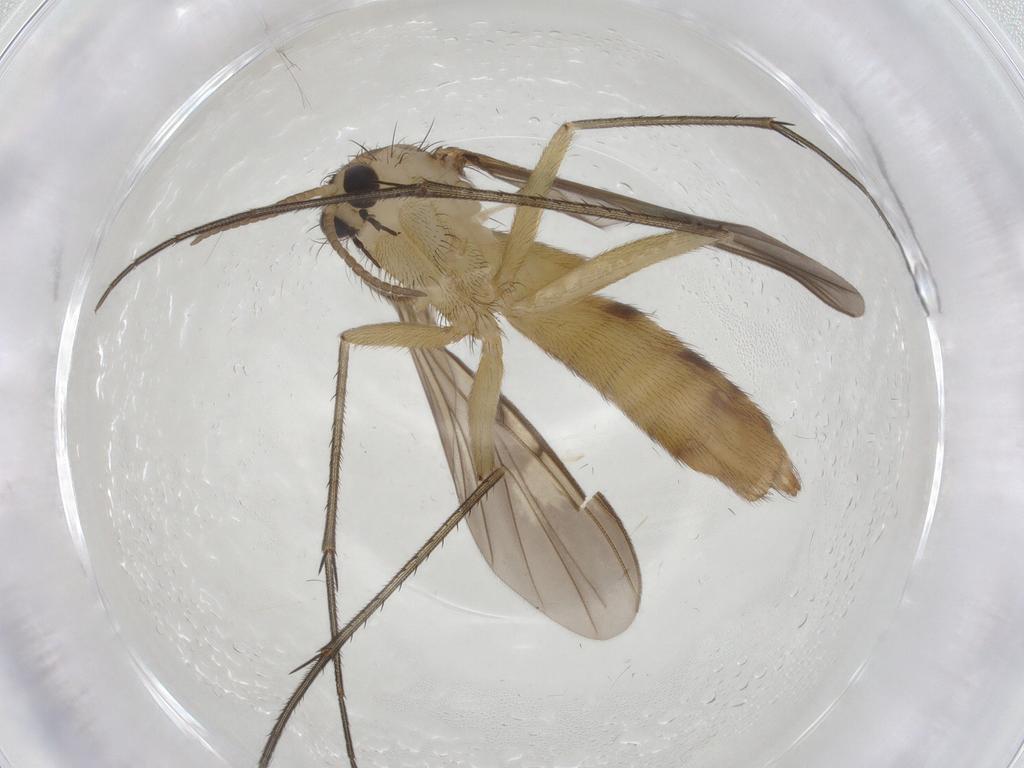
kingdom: Animalia
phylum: Arthropoda
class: Insecta
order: Diptera
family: Mycetophilidae
